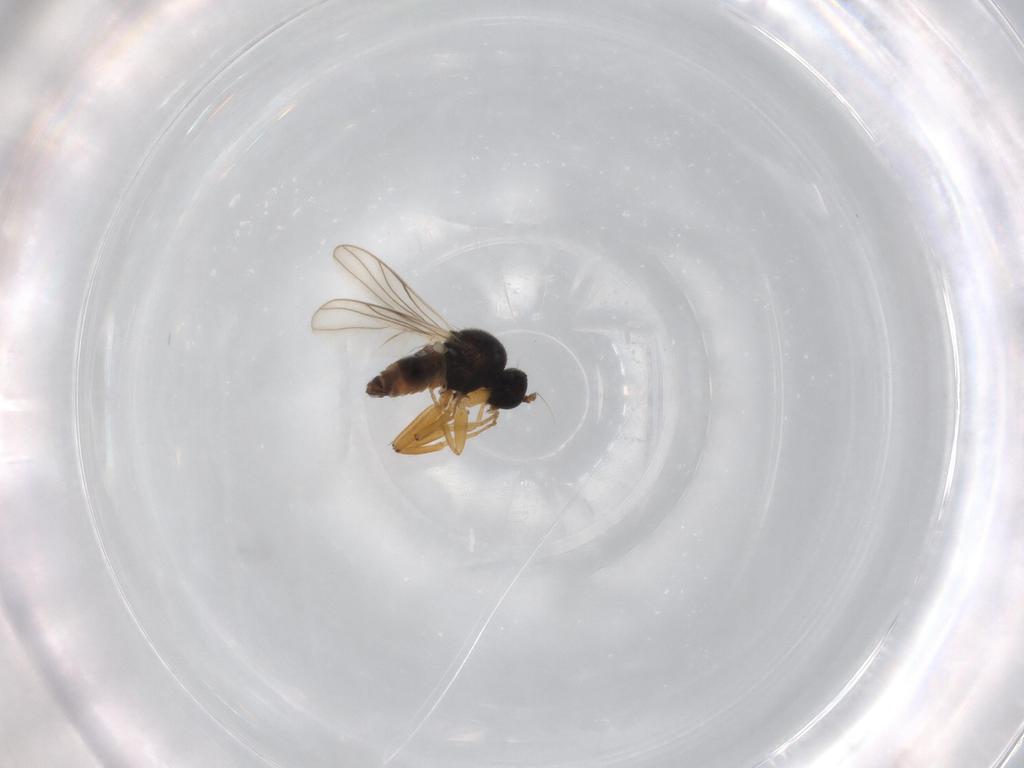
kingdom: Animalia
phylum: Arthropoda
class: Insecta
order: Diptera
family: Hybotidae
